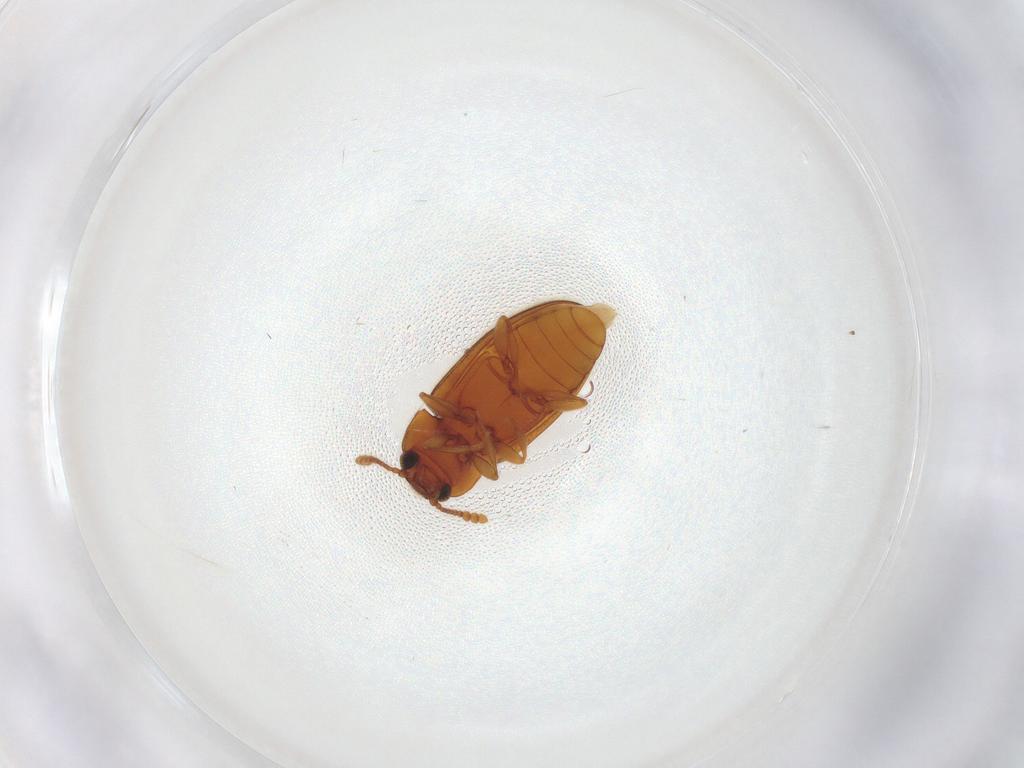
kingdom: Animalia
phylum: Arthropoda
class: Insecta
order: Coleoptera
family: Erotylidae
